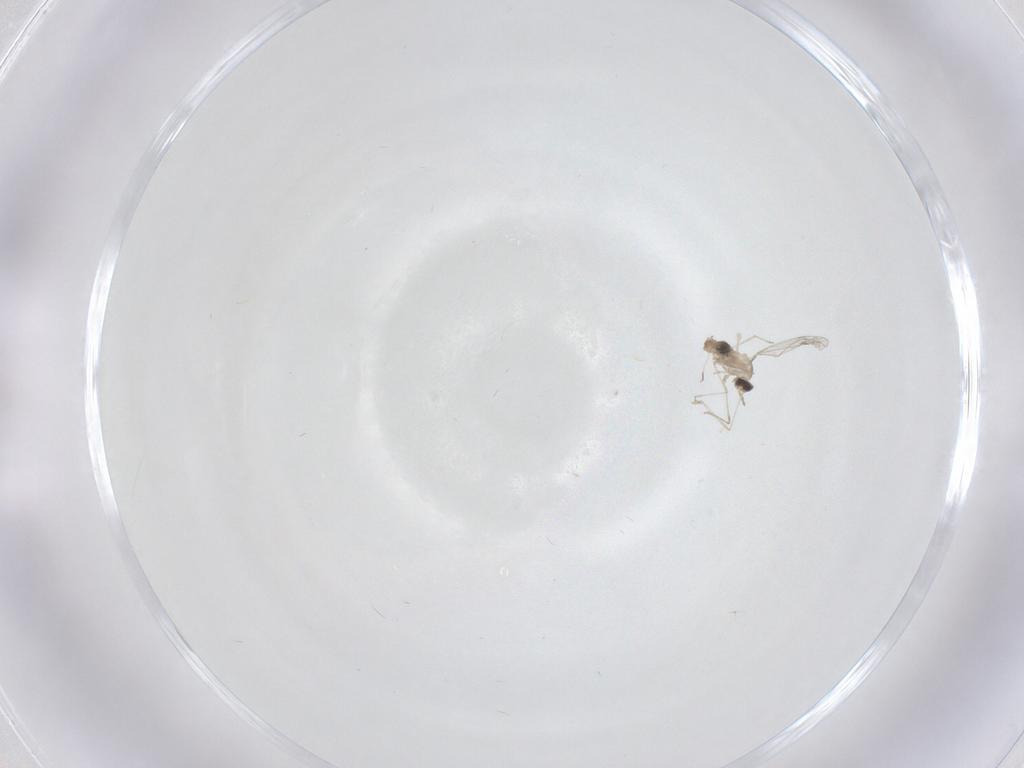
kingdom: Animalia
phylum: Arthropoda
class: Insecta
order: Diptera
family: Cecidomyiidae
